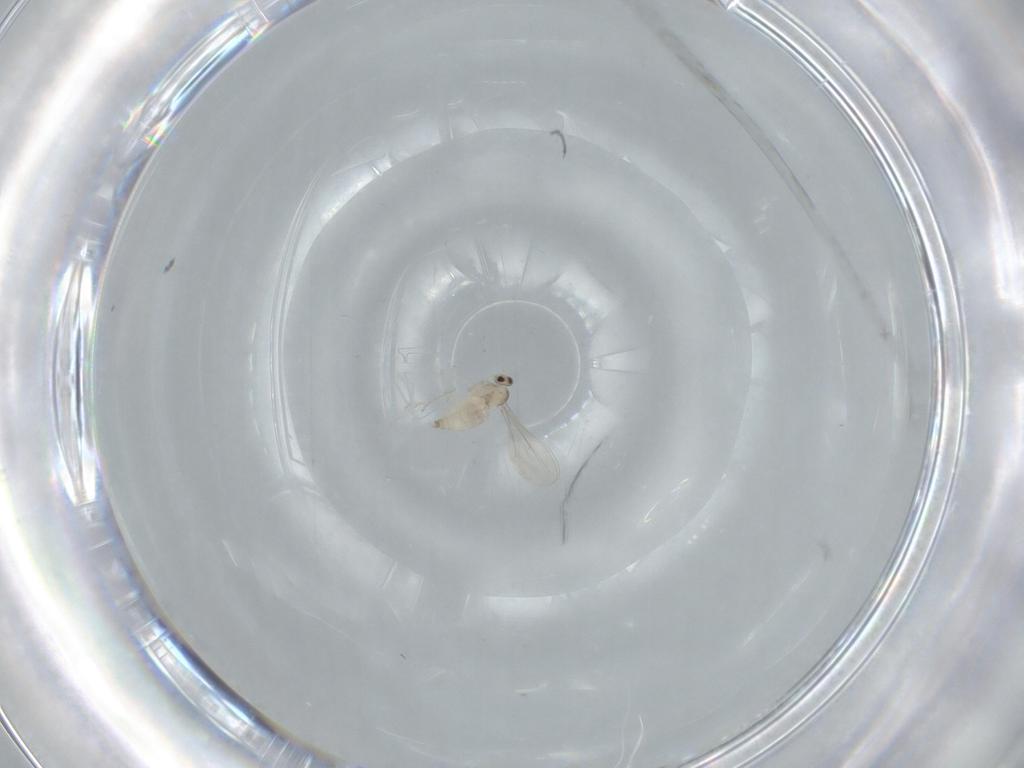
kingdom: Animalia
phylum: Arthropoda
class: Insecta
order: Diptera
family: Cecidomyiidae
